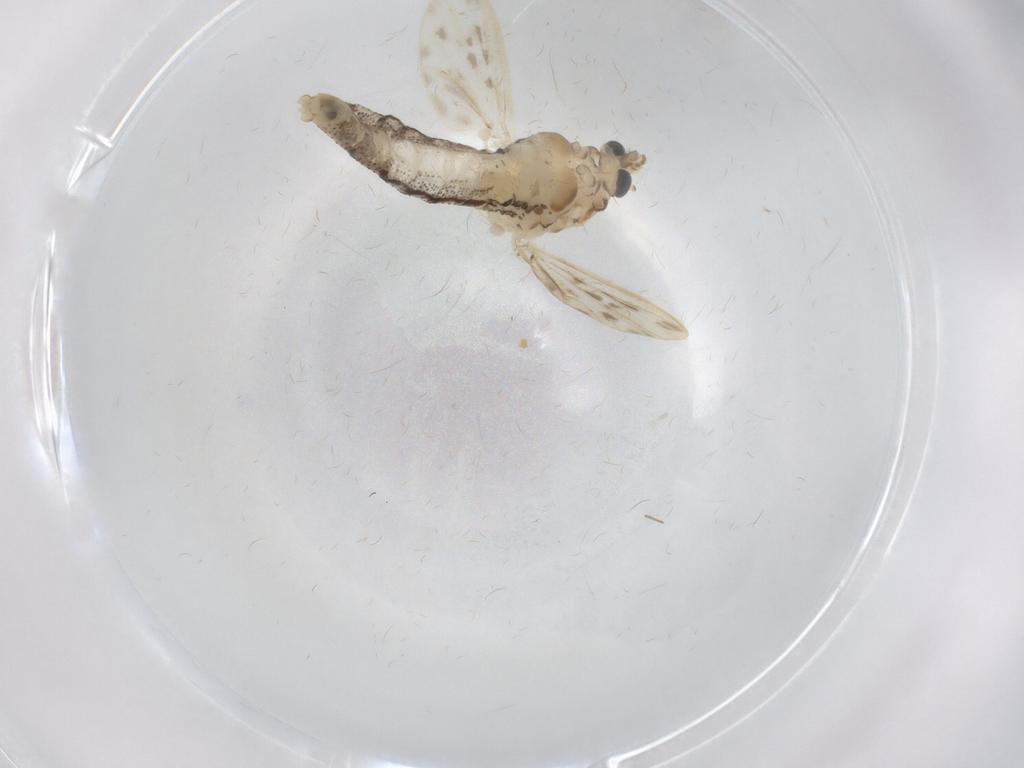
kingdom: Animalia
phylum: Arthropoda
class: Insecta
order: Diptera
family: Chaoboridae
